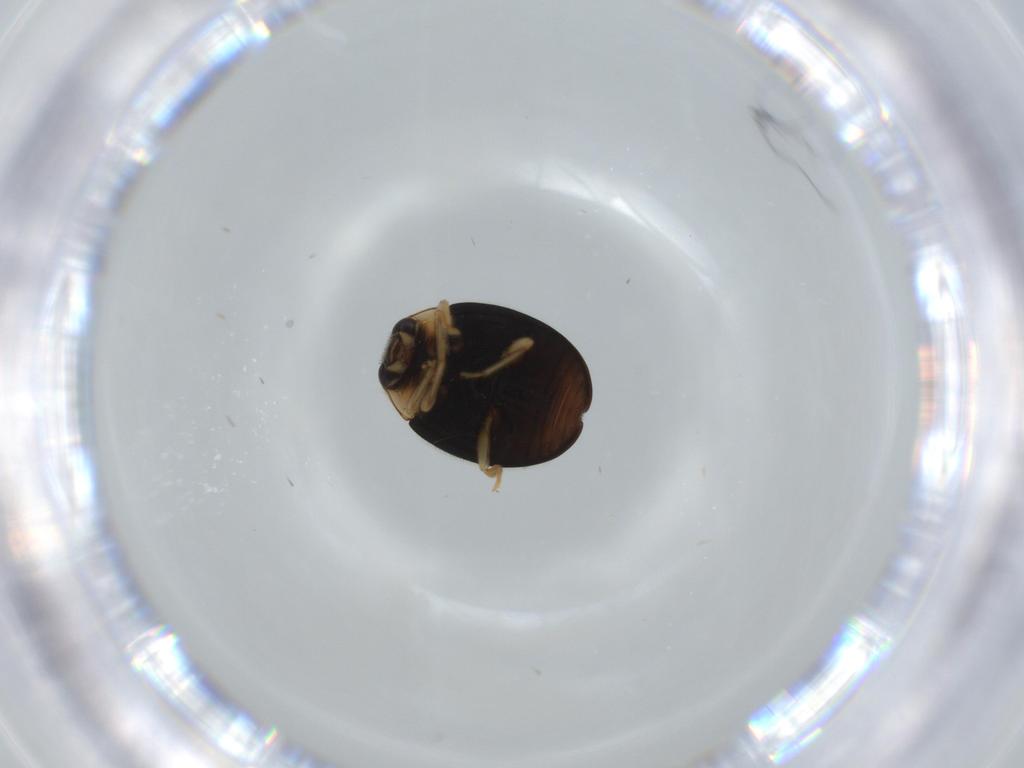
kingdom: Animalia
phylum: Arthropoda
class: Insecta
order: Coleoptera
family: Coccinellidae
